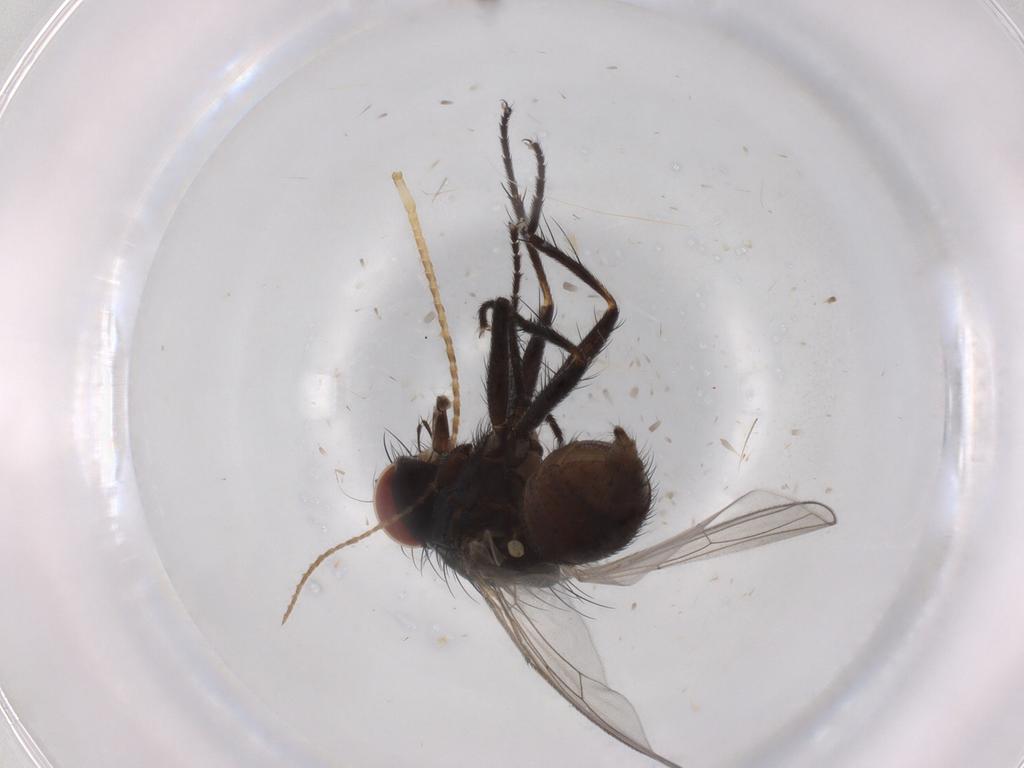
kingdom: Animalia
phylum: Arthropoda
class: Insecta
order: Diptera
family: Muscidae
